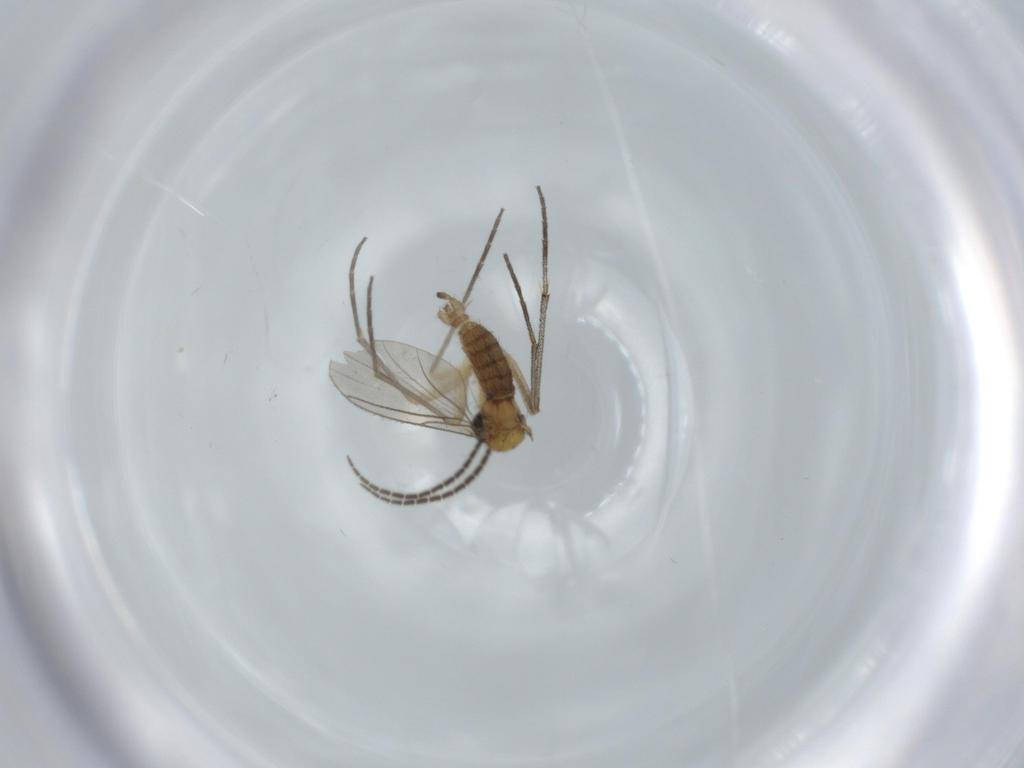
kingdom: Animalia
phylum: Arthropoda
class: Insecta
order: Diptera
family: Sciaridae
